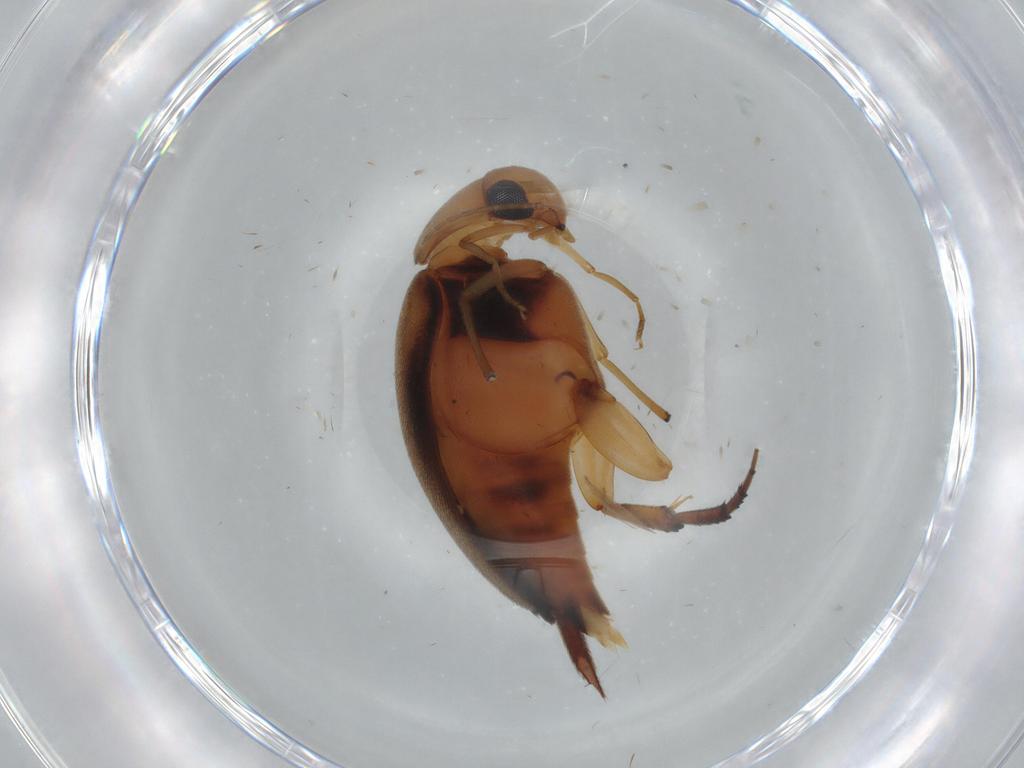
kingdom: Animalia
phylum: Arthropoda
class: Insecta
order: Coleoptera
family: Mordellidae
